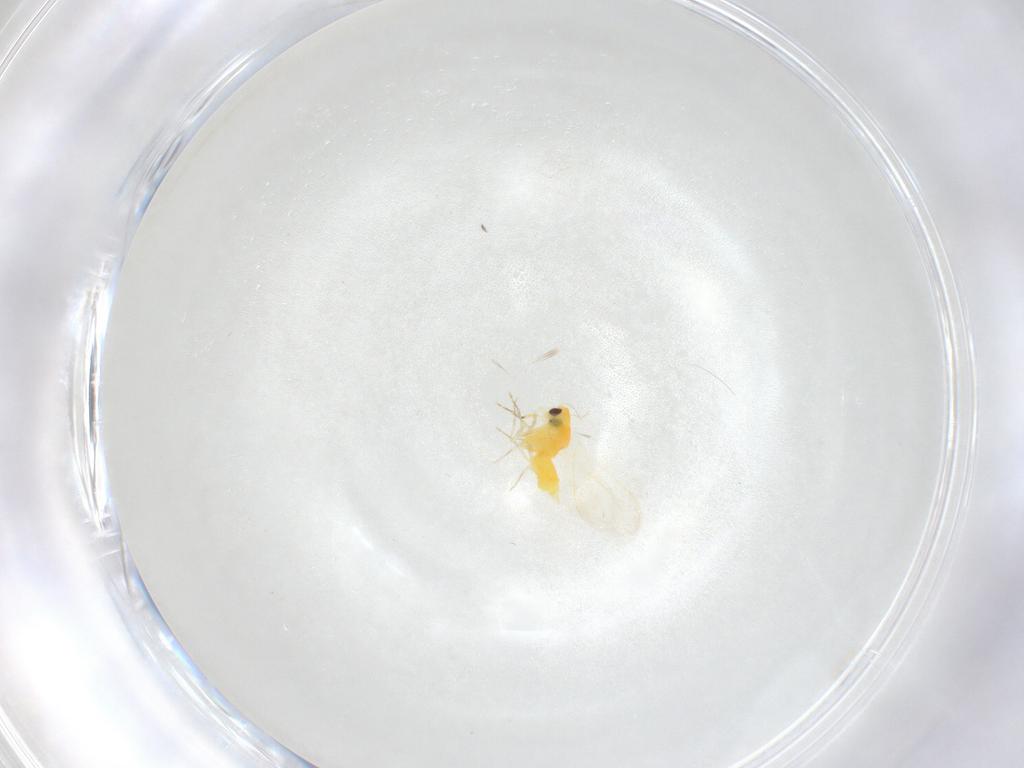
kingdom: Animalia
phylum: Arthropoda
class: Insecta
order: Hemiptera
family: Aleyrodidae
